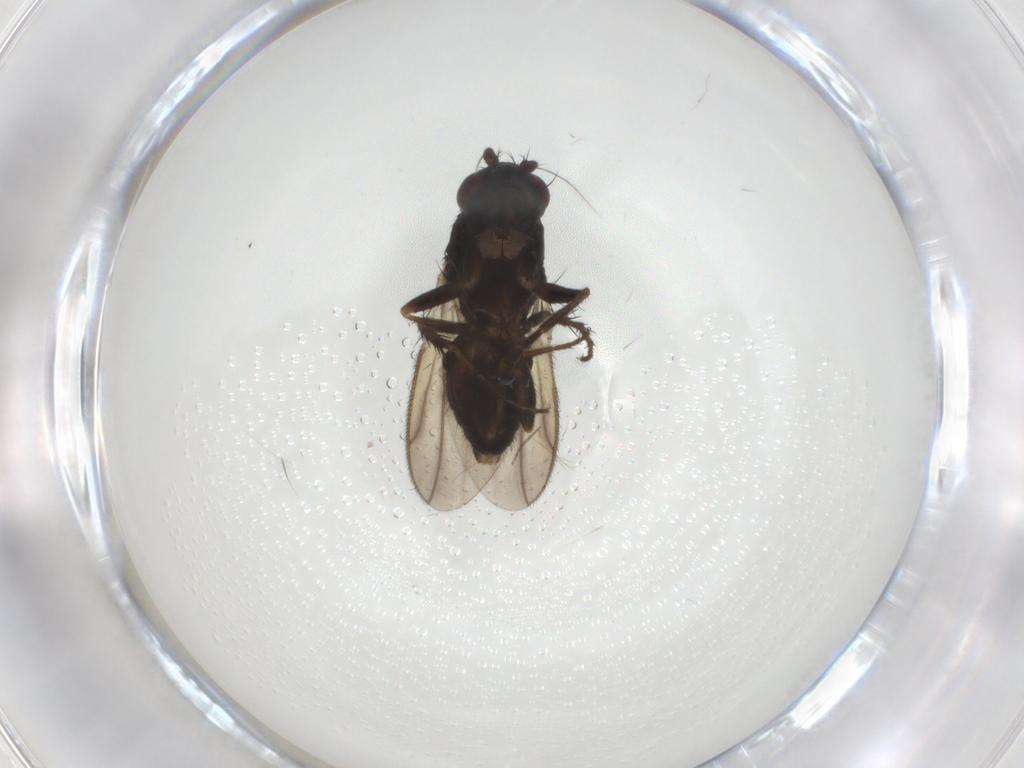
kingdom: Animalia
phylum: Arthropoda
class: Insecta
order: Diptera
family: Sphaeroceridae
